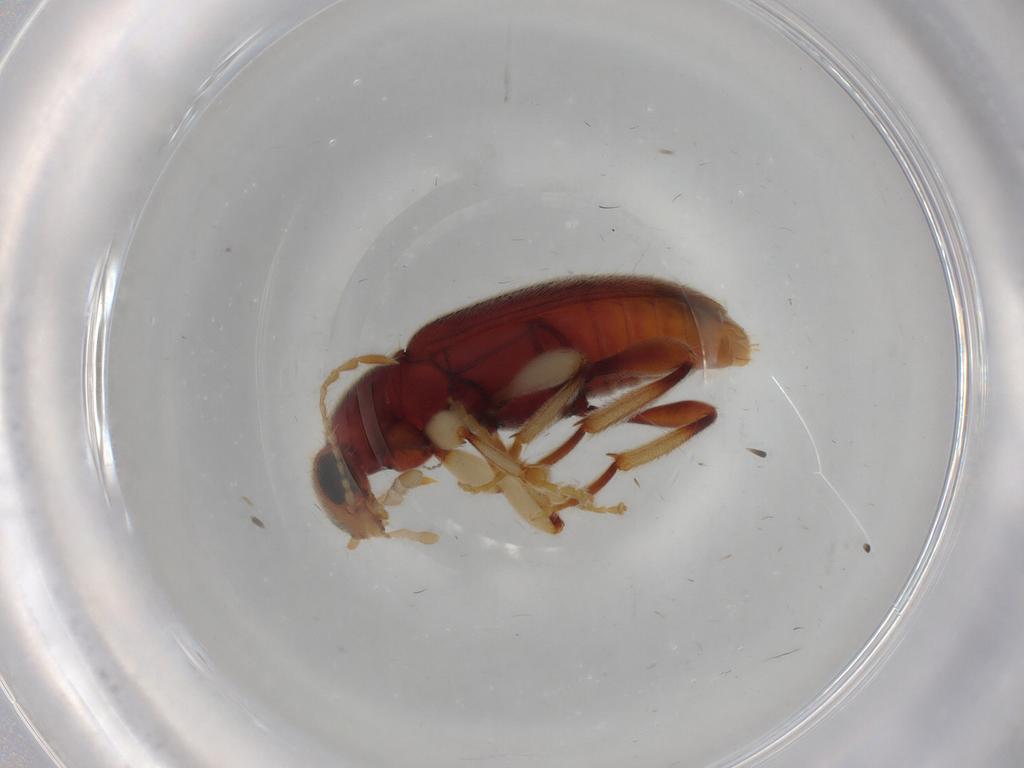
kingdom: Animalia
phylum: Arthropoda
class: Insecta
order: Coleoptera
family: Anthicidae
